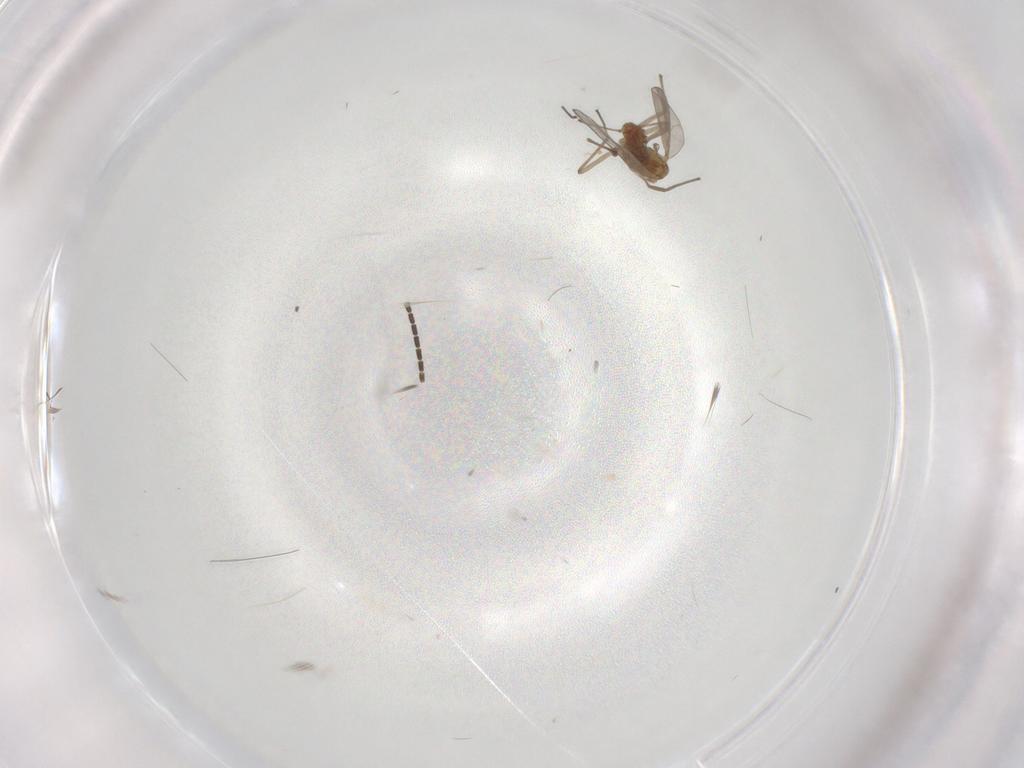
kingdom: Animalia
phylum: Arthropoda
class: Insecta
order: Diptera
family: Chironomidae
